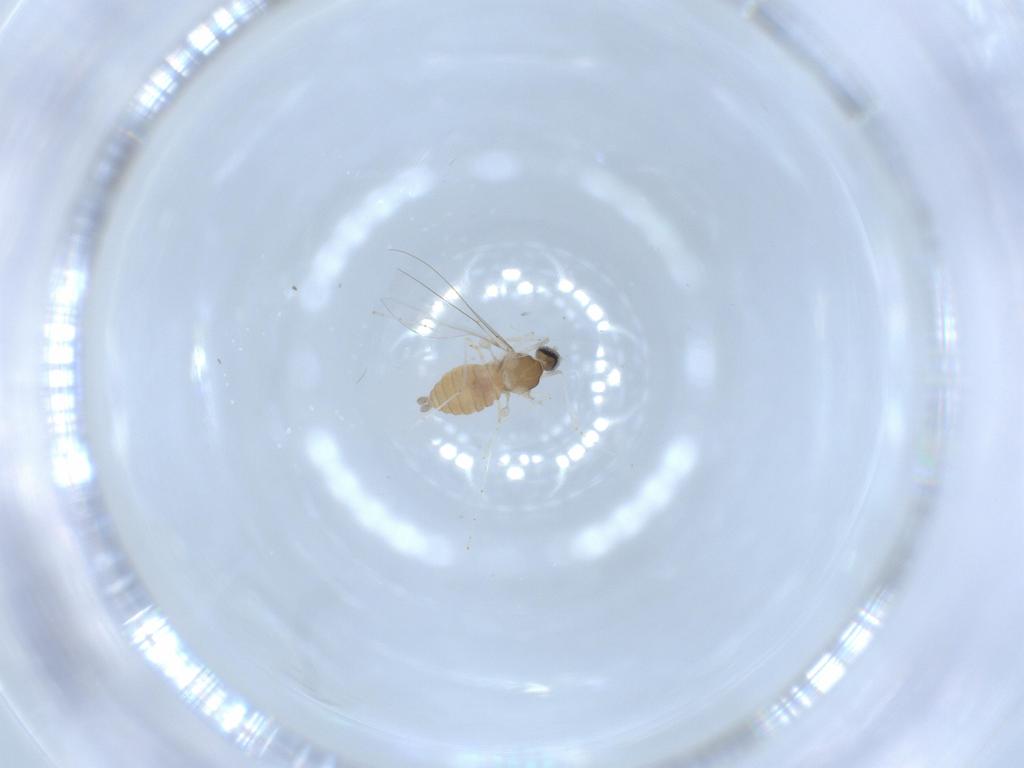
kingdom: Animalia
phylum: Arthropoda
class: Insecta
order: Diptera
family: Cecidomyiidae
